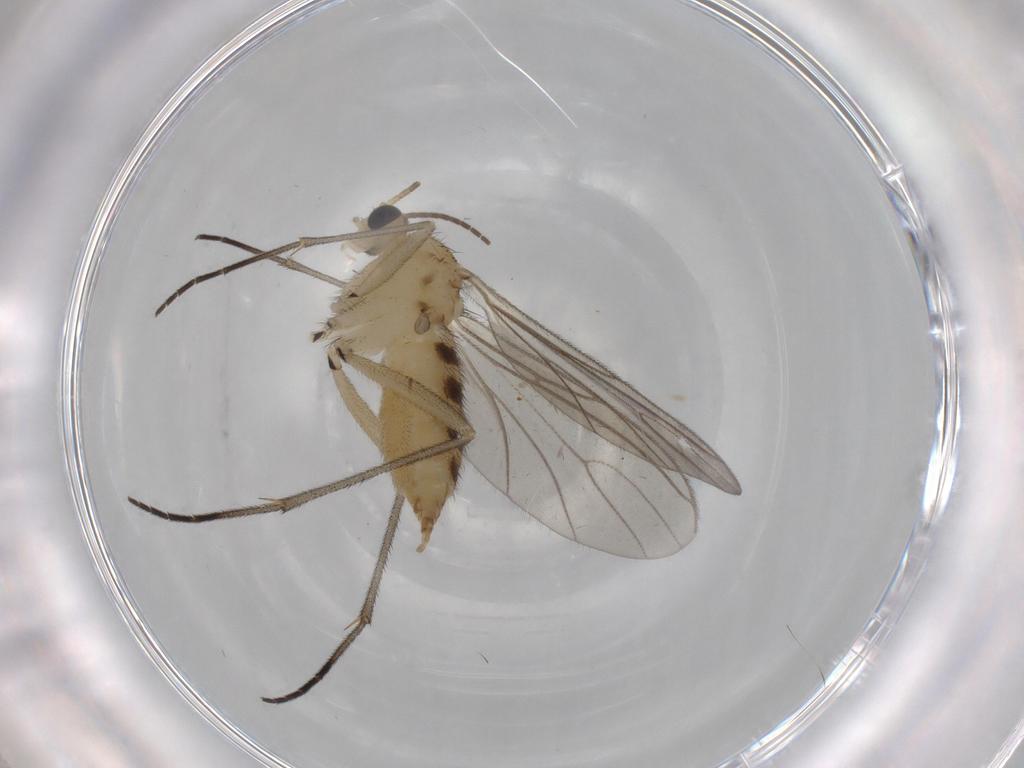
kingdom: Animalia
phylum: Arthropoda
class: Insecta
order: Diptera
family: Sciaridae
